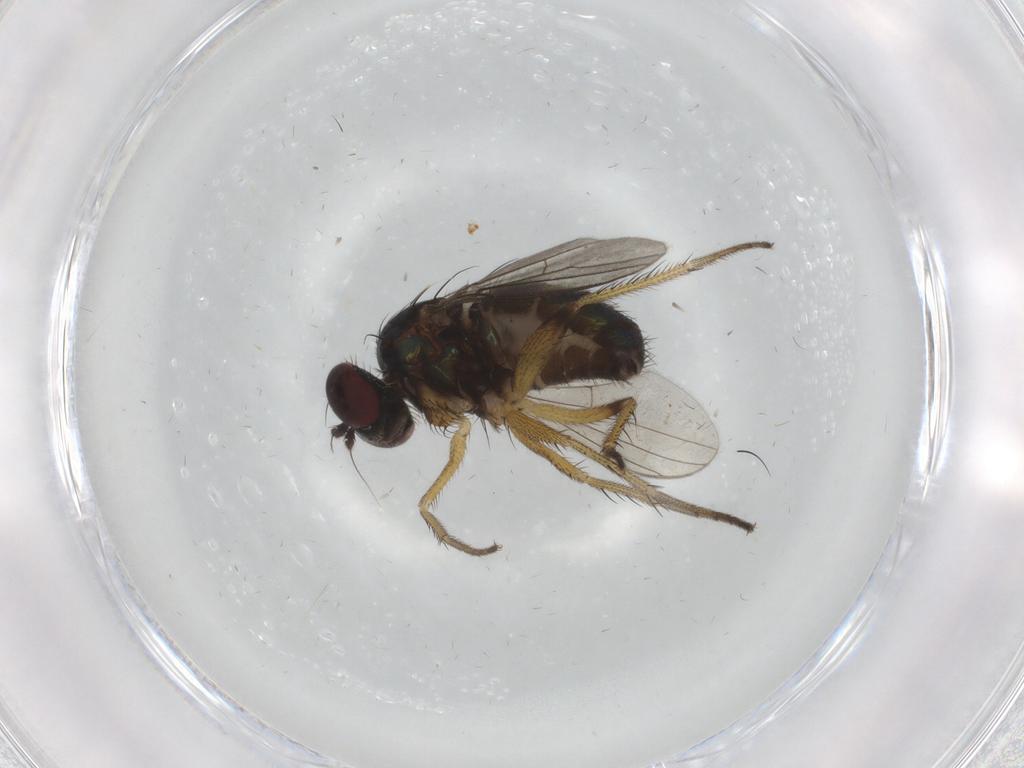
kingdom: Animalia
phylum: Arthropoda
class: Insecta
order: Diptera
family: Dolichopodidae
